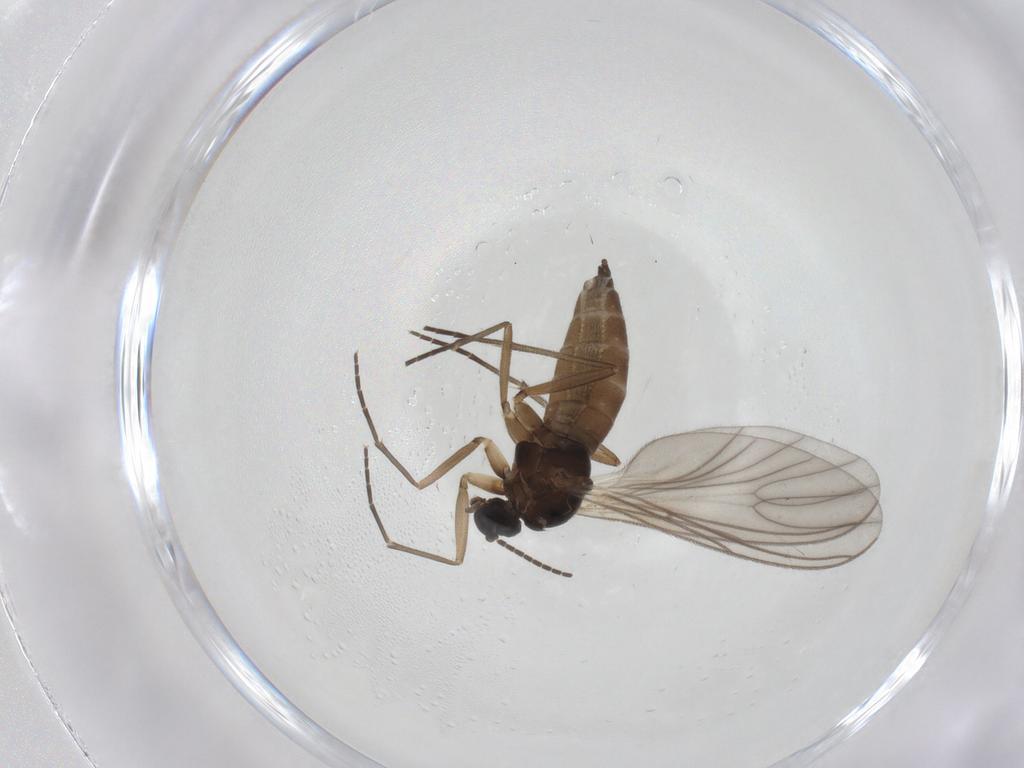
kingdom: Animalia
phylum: Arthropoda
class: Insecta
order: Diptera
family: Sciaridae
